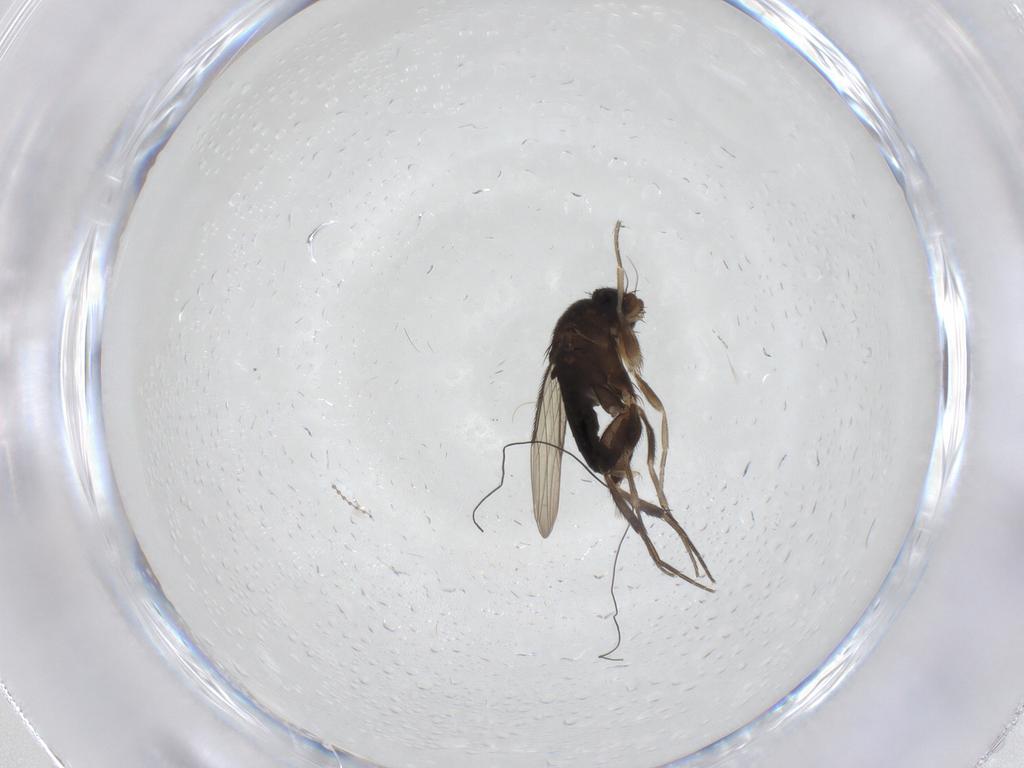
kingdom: Animalia
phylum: Arthropoda
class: Insecta
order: Diptera
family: Phoridae
